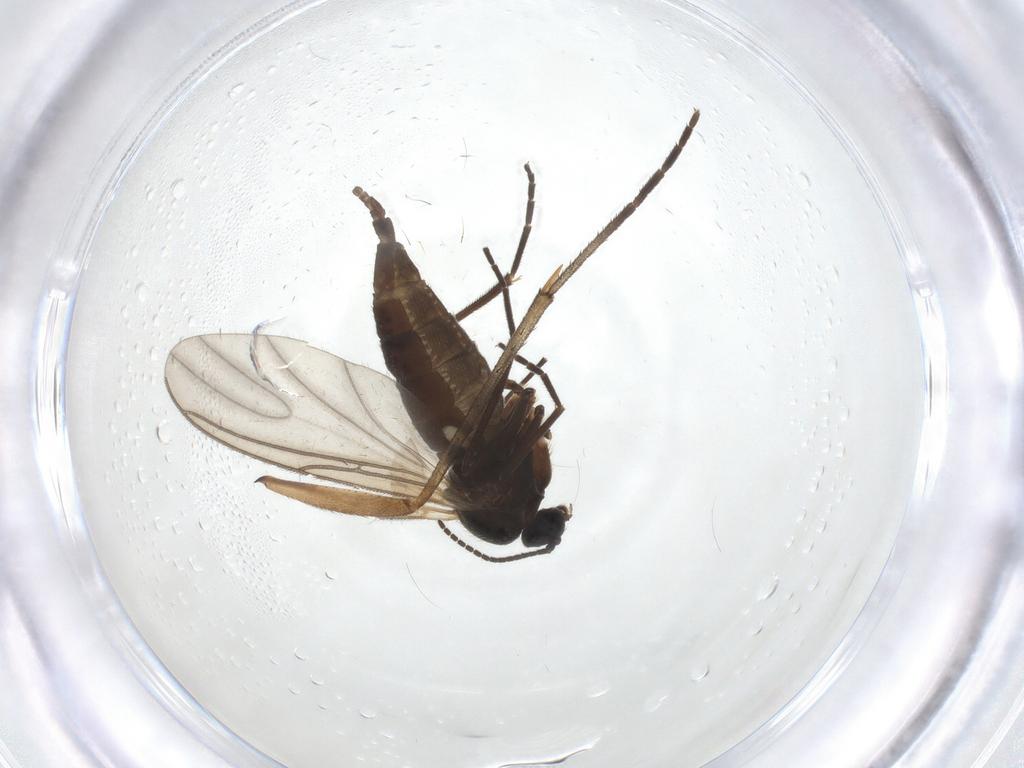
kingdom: Animalia
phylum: Arthropoda
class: Insecta
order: Diptera
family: Sciaridae
